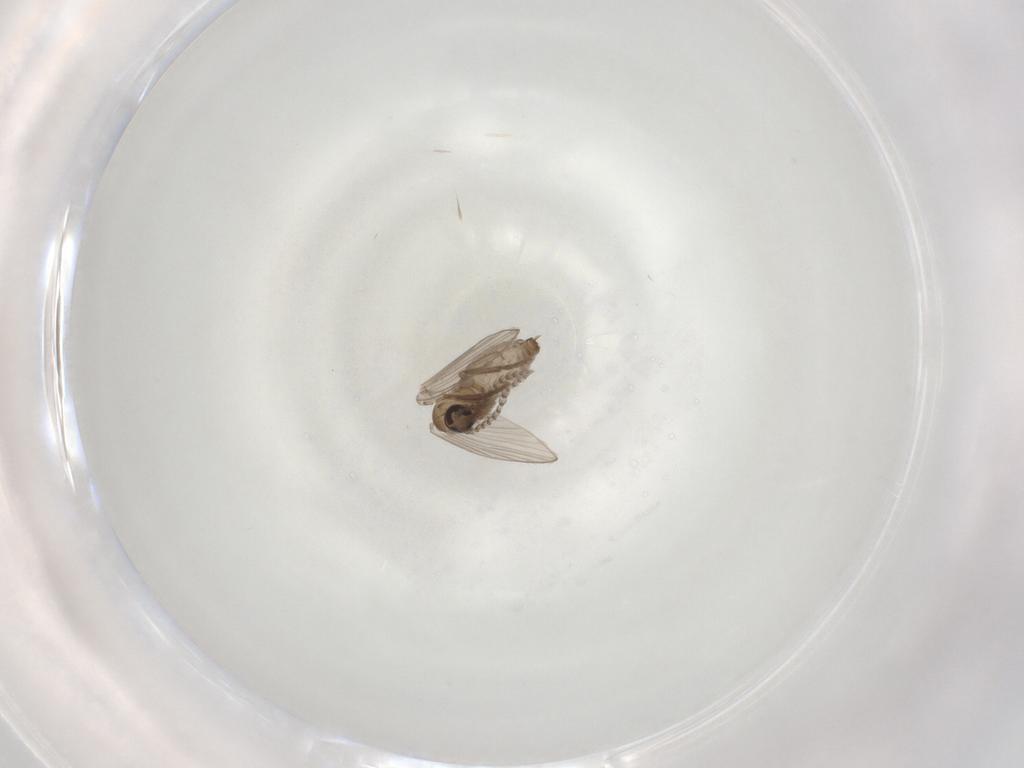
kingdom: Animalia
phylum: Arthropoda
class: Insecta
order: Diptera
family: Psychodidae
